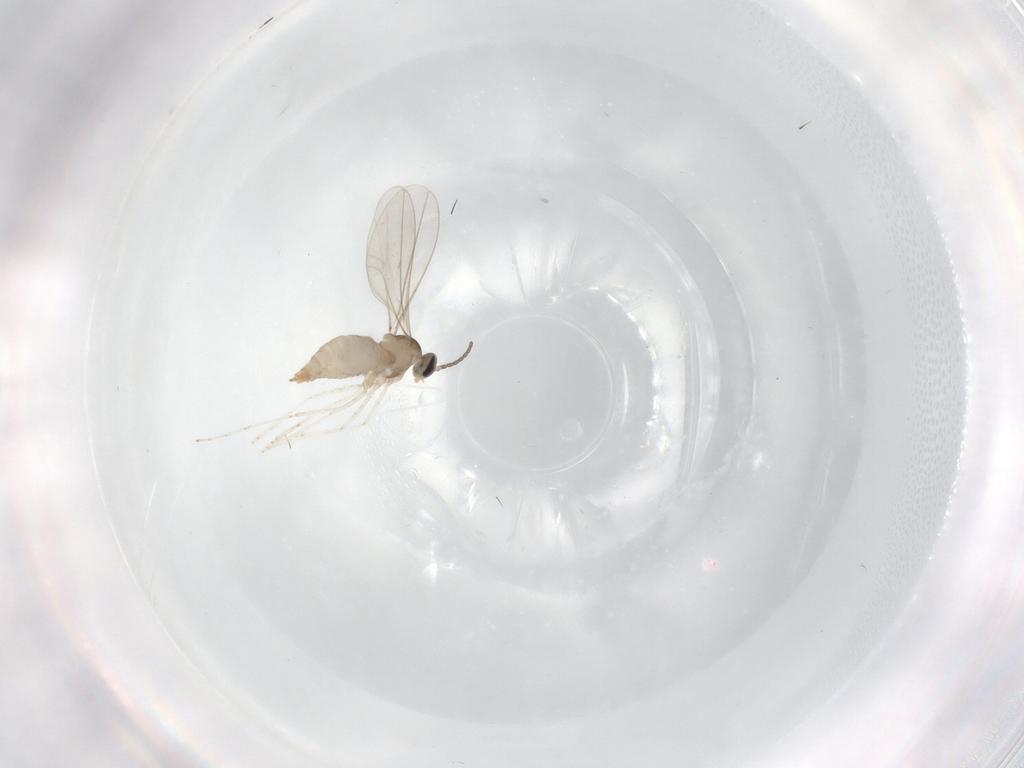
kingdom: Animalia
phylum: Arthropoda
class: Insecta
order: Diptera
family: Cecidomyiidae
